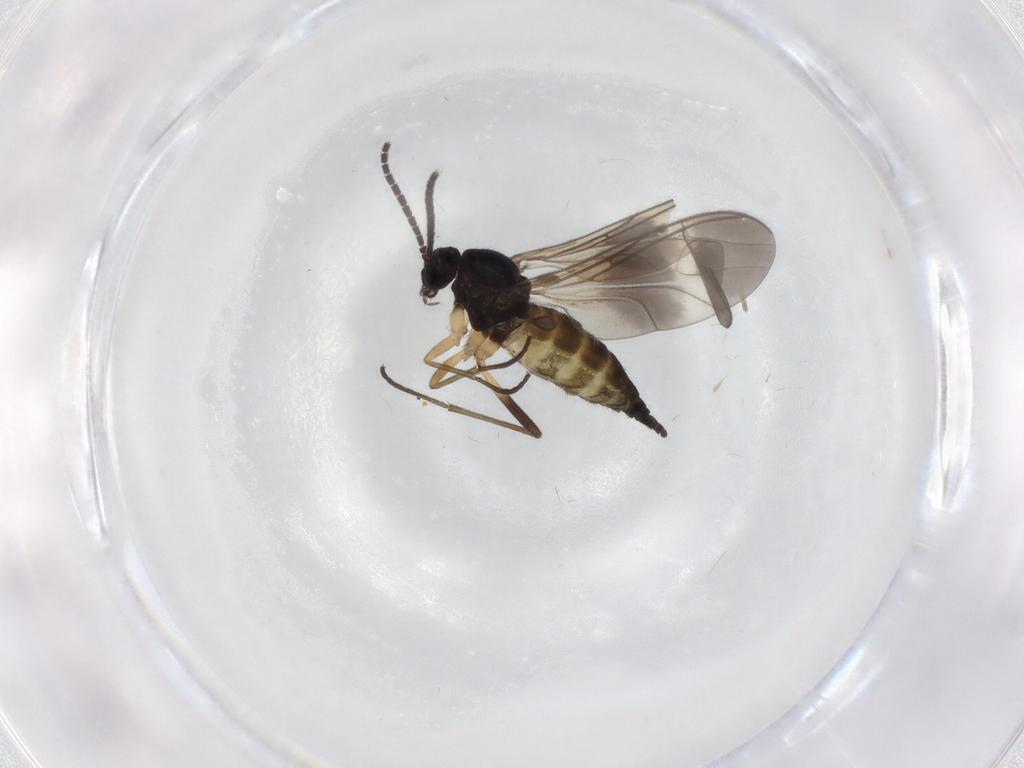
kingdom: Animalia
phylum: Arthropoda
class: Insecta
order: Diptera
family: Sciaridae
